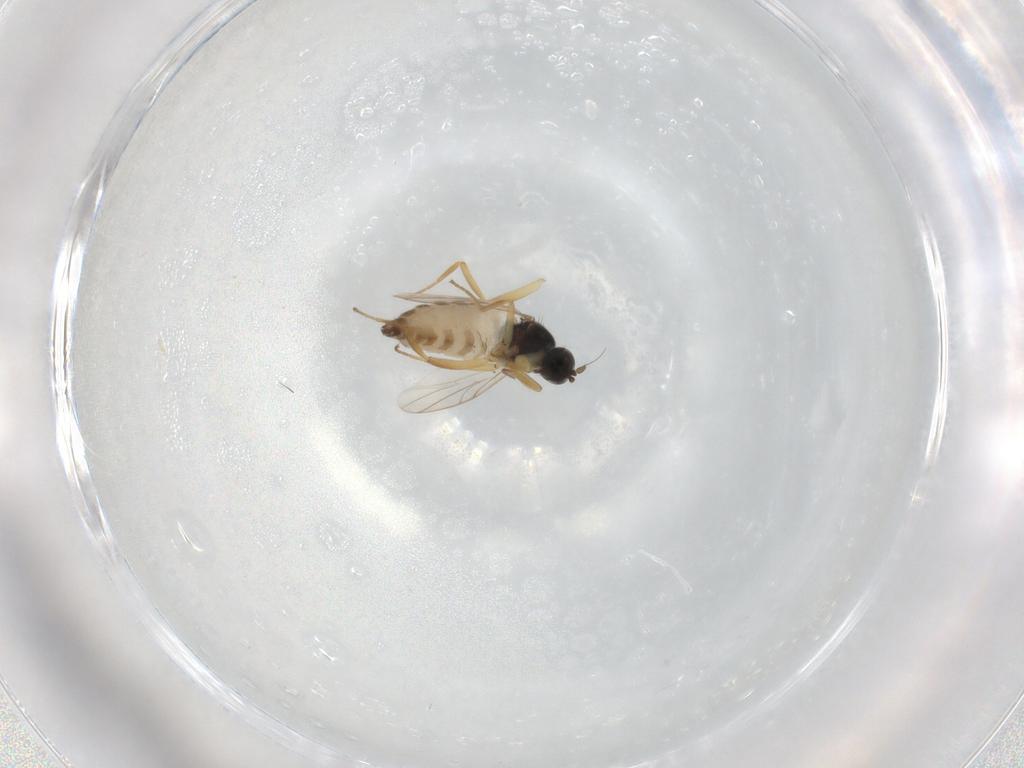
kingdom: Animalia
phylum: Arthropoda
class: Insecta
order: Diptera
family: Hybotidae
